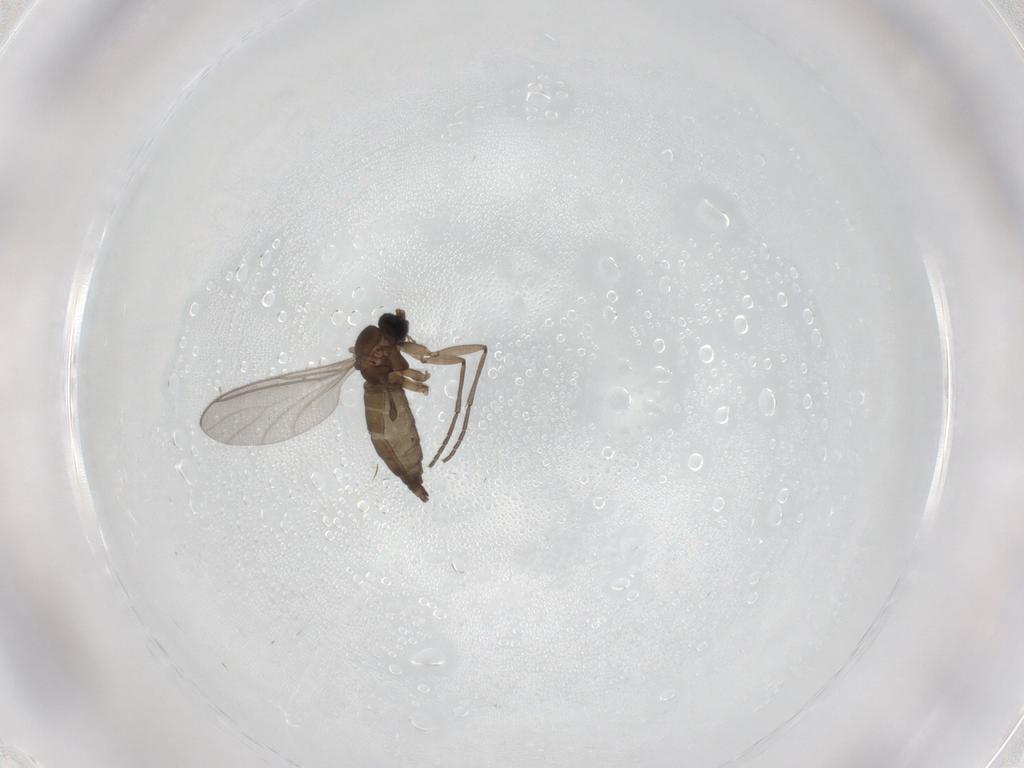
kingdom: Animalia
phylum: Arthropoda
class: Insecta
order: Diptera
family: Sciaridae
